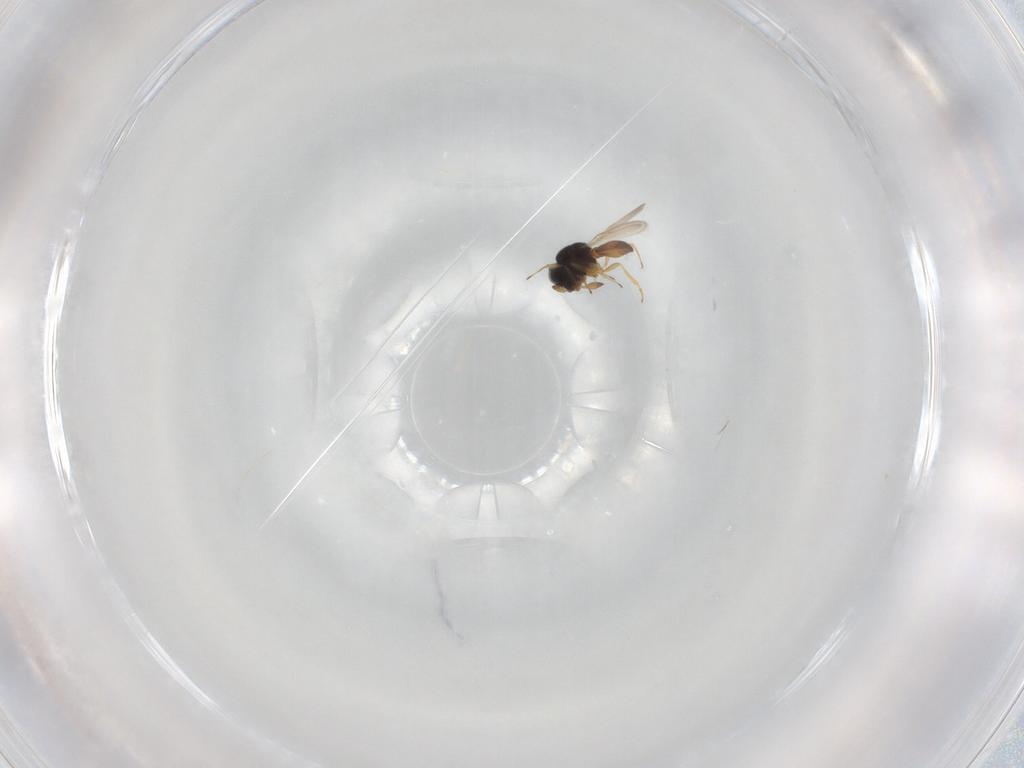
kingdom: Animalia
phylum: Arthropoda
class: Insecta
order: Hymenoptera
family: Scelionidae
